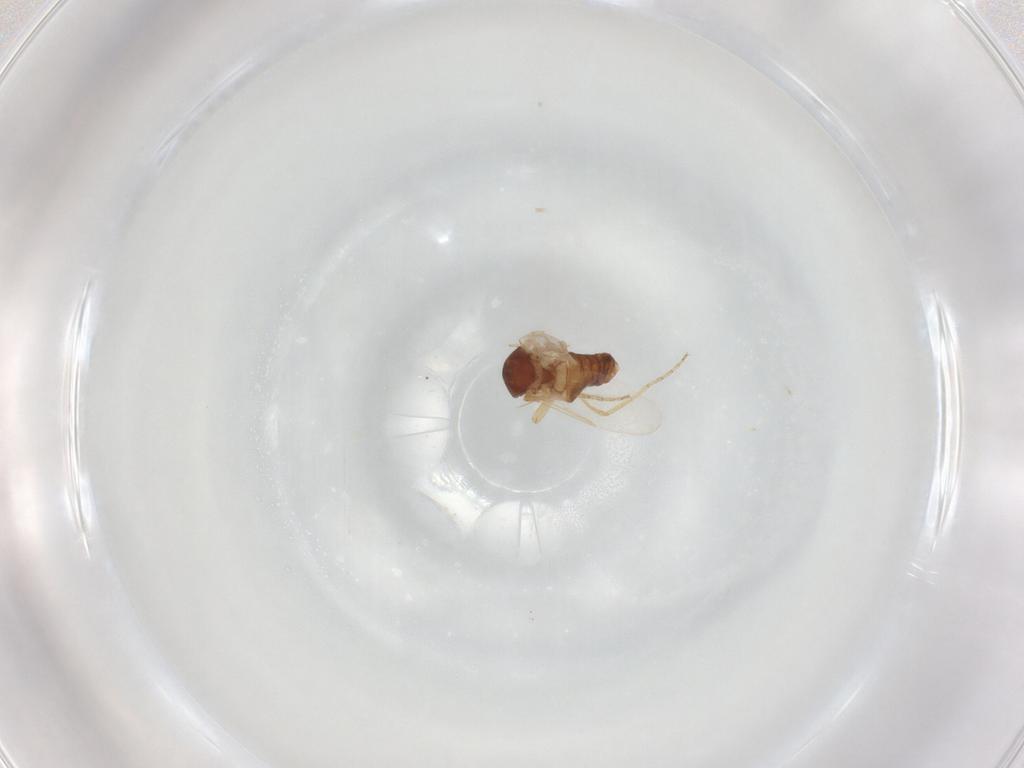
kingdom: Animalia
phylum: Arthropoda
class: Insecta
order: Diptera
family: Ceratopogonidae
